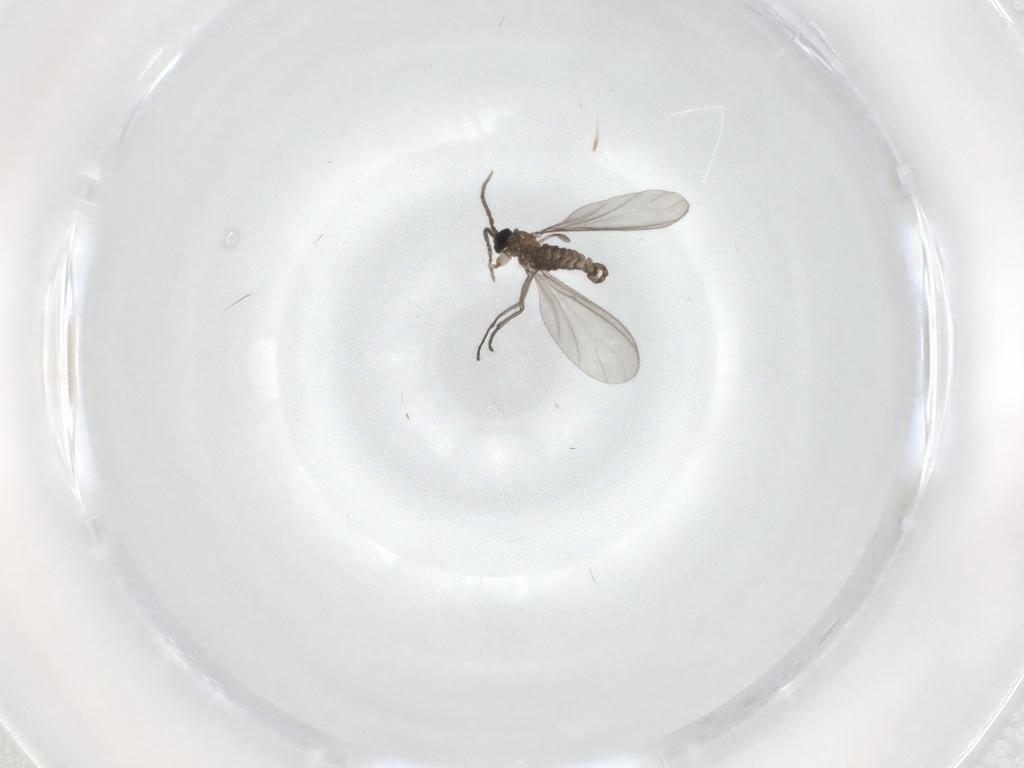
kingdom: Animalia
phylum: Arthropoda
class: Insecta
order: Diptera
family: Sciaridae
